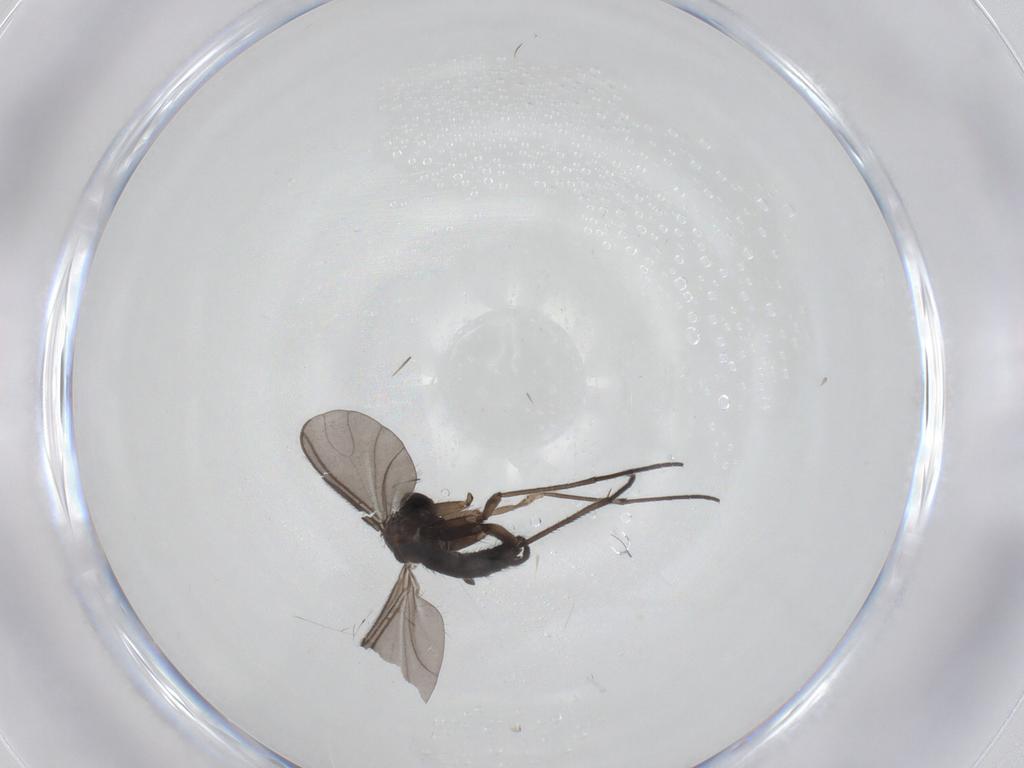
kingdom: Animalia
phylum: Arthropoda
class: Insecta
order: Diptera
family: Sciaridae
